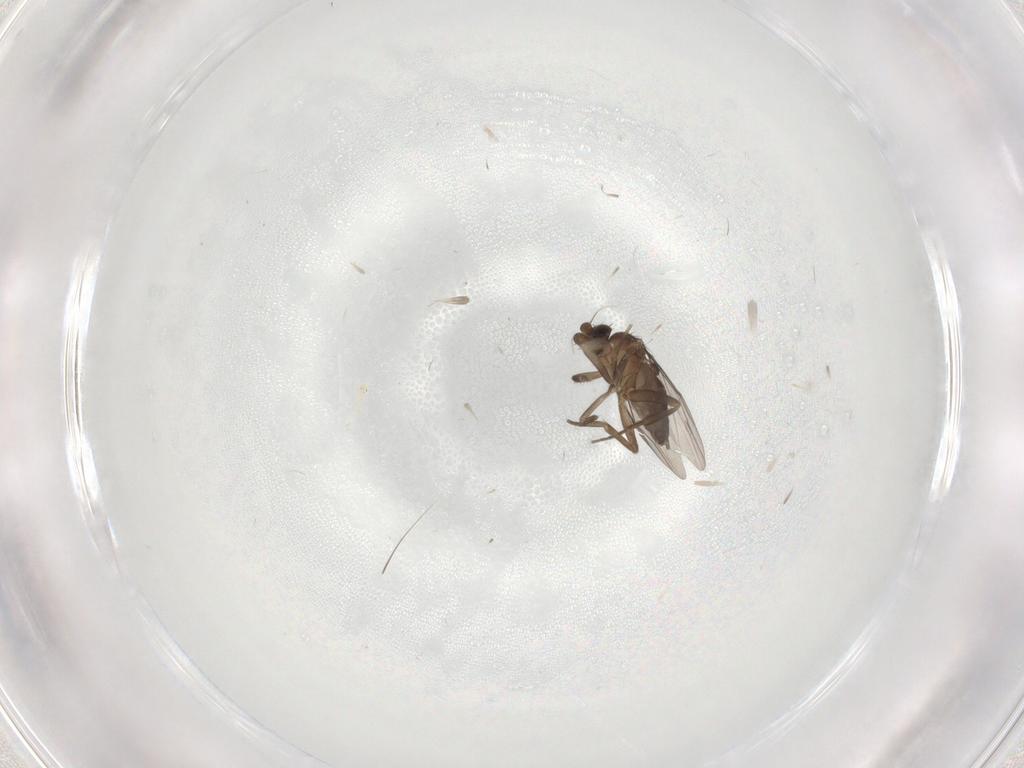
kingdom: Animalia
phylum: Arthropoda
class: Insecta
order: Diptera
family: Phoridae
